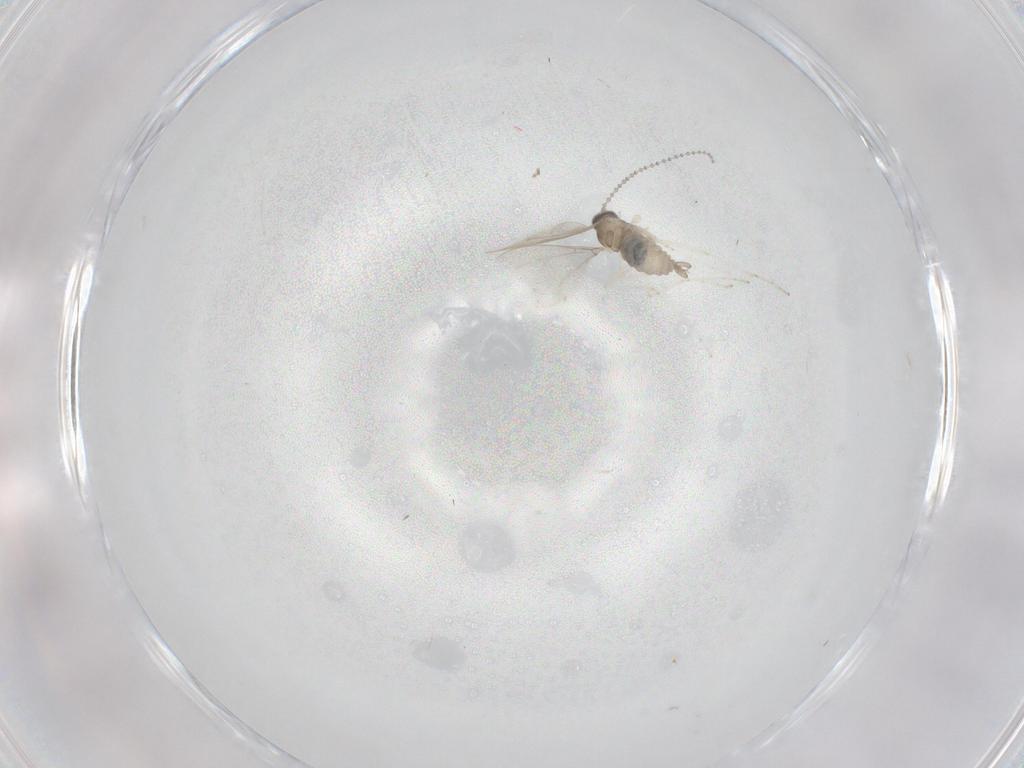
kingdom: Animalia
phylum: Arthropoda
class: Insecta
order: Diptera
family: Cecidomyiidae
